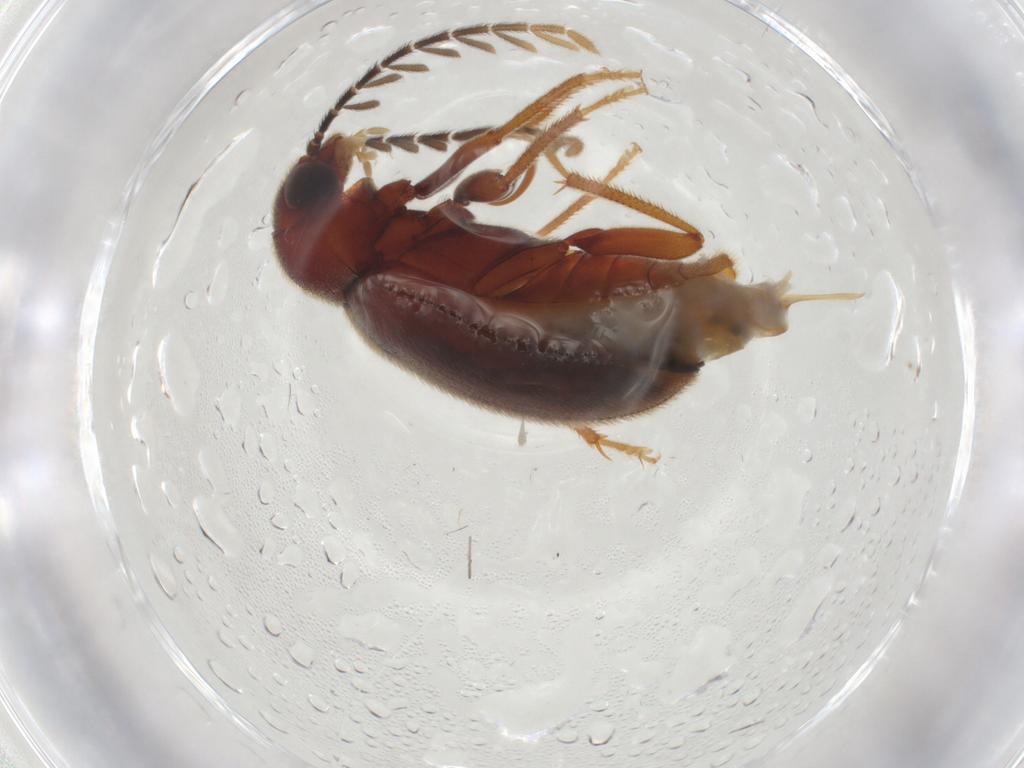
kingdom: Animalia
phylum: Arthropoda
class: Insecta
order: Coleoptera
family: Ptilodactylidae
